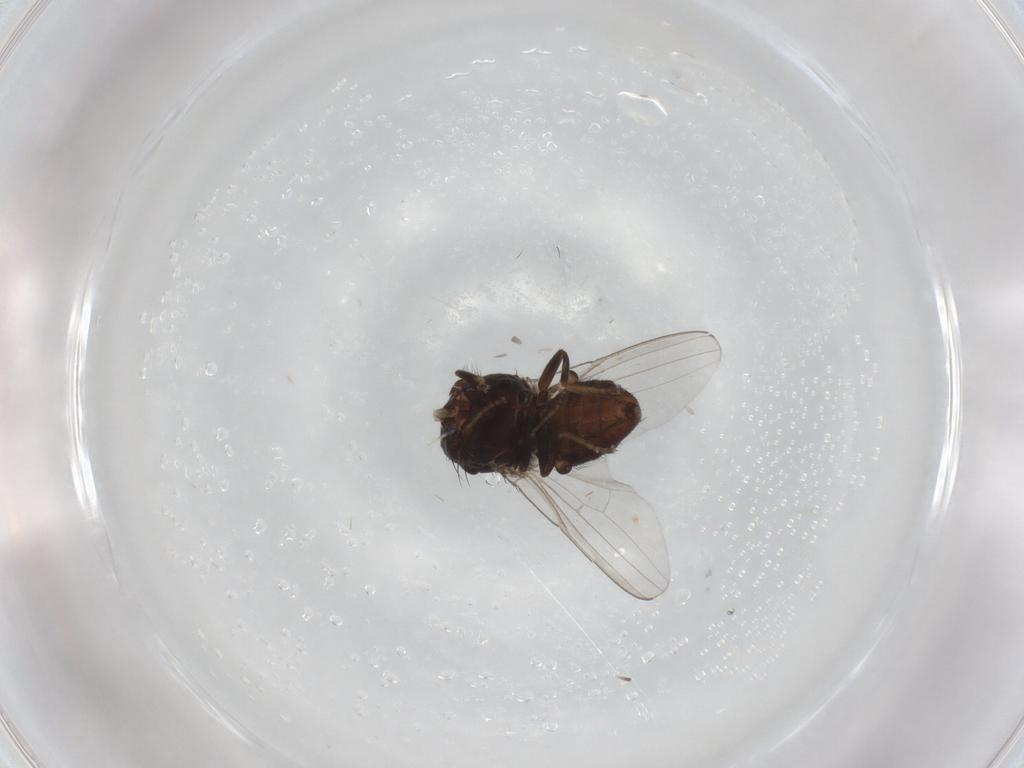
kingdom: Animalia
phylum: Arthropoda
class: Insecta
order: Diptera
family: Milichiidae
